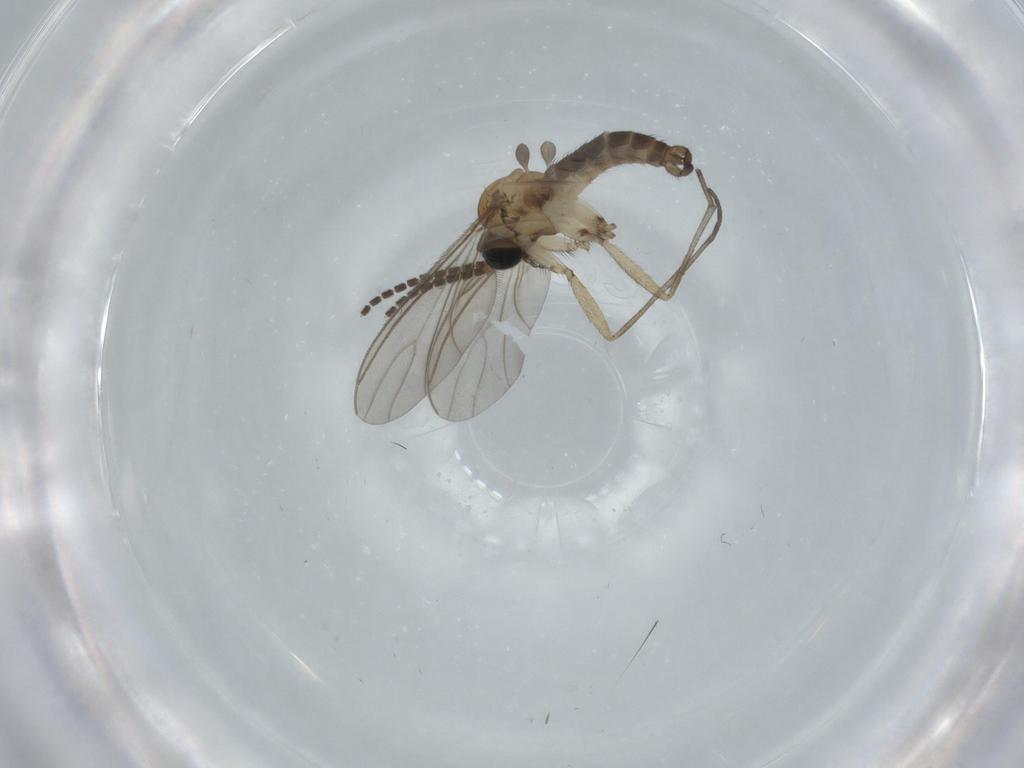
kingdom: Animalia
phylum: Arthropoda
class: Insecta
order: Diptera
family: Sciaridae
